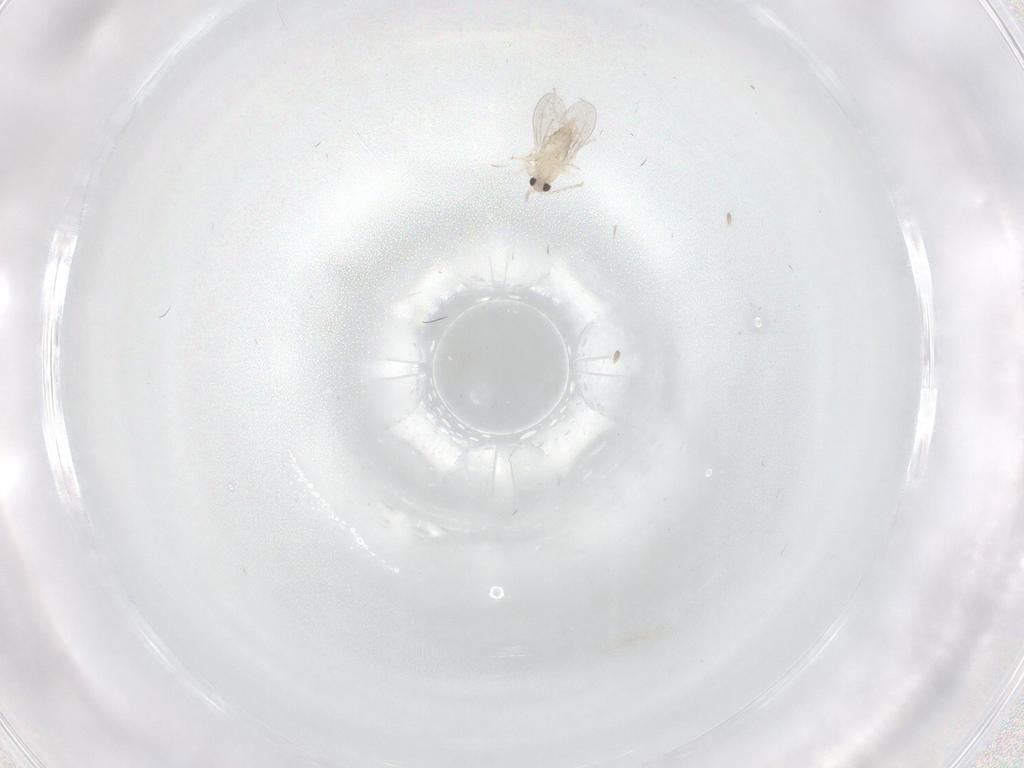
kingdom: Animalia
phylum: Arthropoda
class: Insecta
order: Diptera
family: Cecidomyiidae
